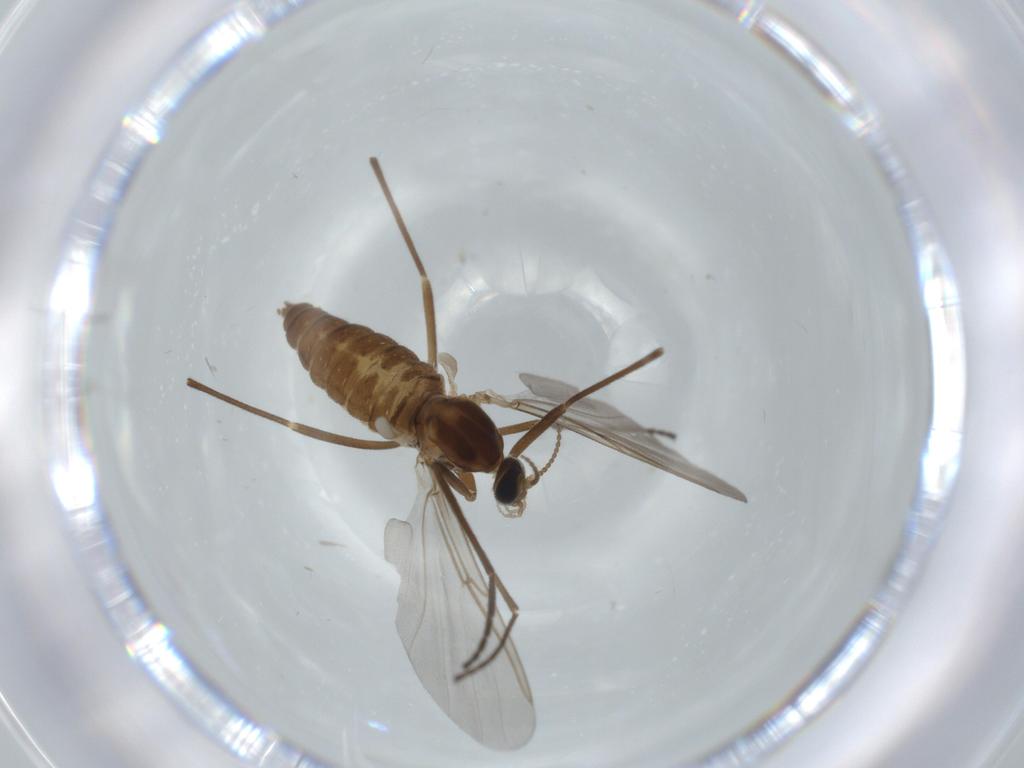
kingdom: Animalia
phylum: Arthropoda
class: Insecta
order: Diptera
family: Cecidomyiidae
